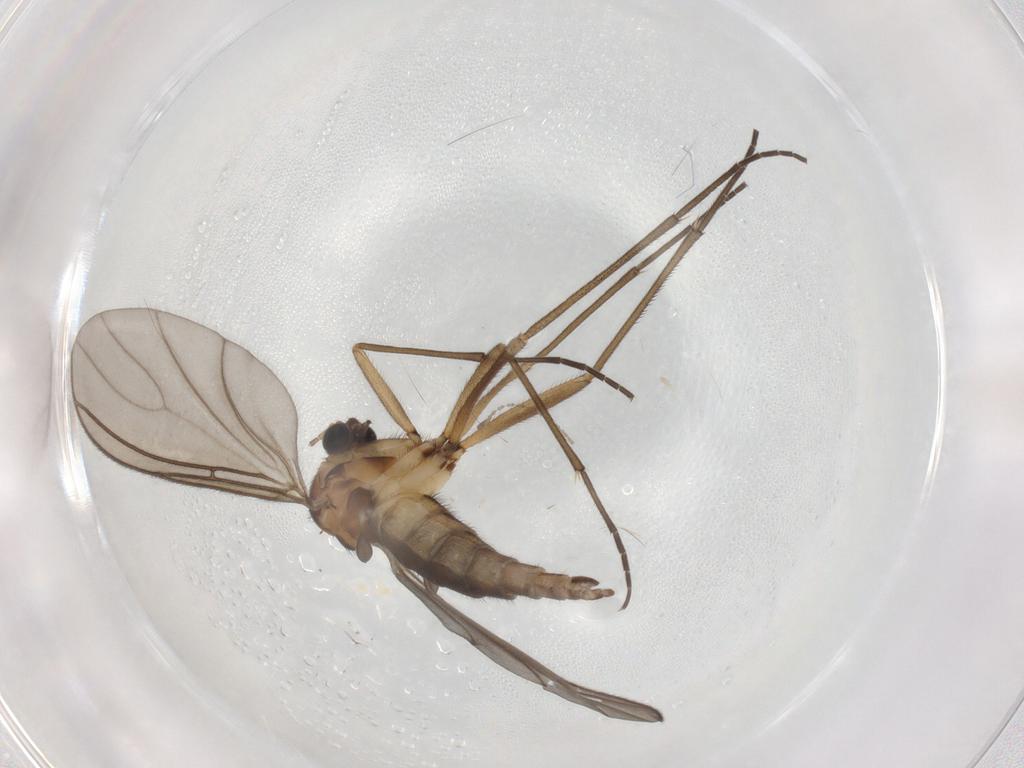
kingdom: Animalia
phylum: Arthropoda
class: Insecta
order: Diptera
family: Sciaridae
